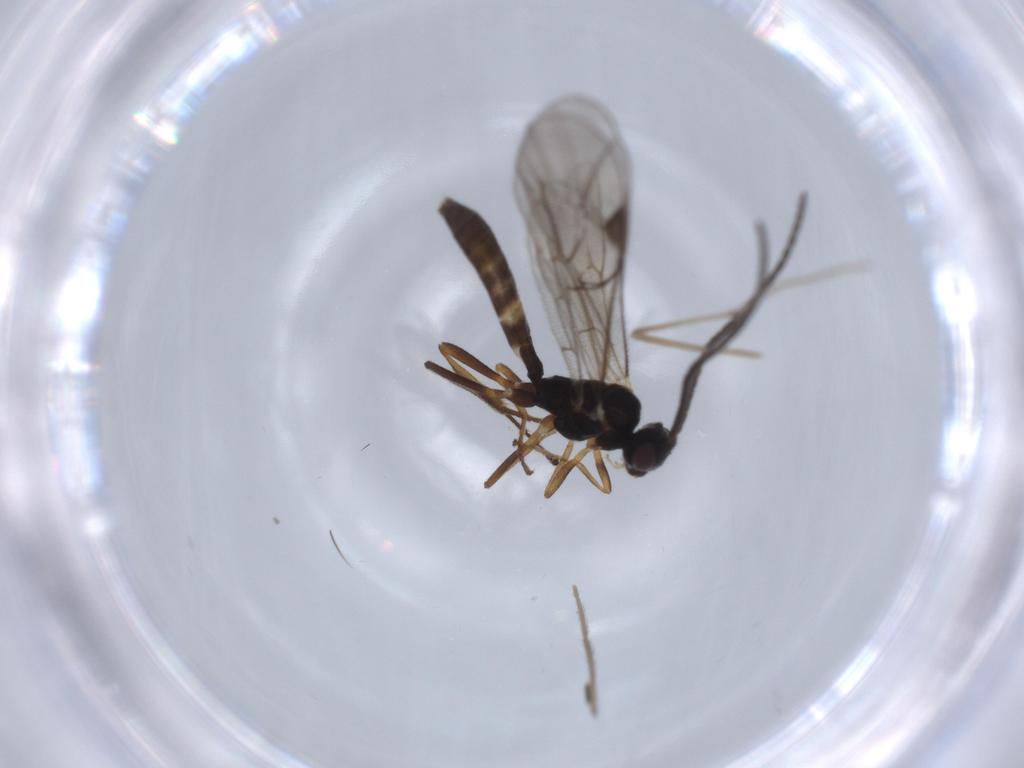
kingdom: Animalia
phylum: Arthropoda
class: Insecta
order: Hymenoptera
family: Ichneumonidae
